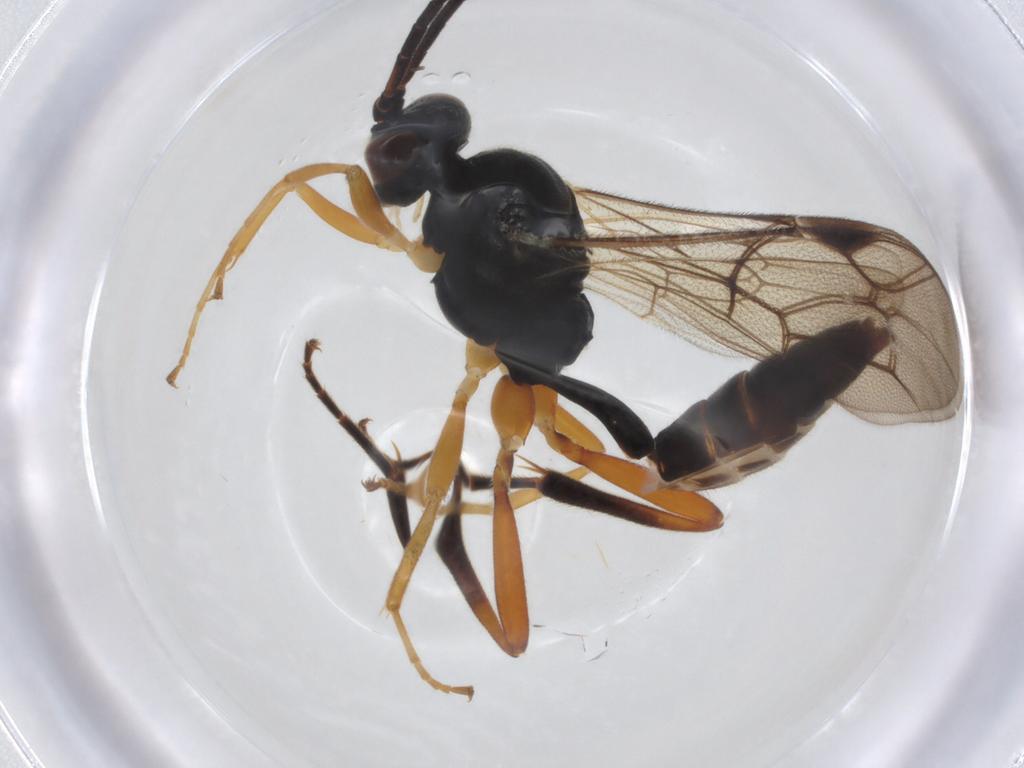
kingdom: Animalia
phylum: Arthropoda
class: Insecta
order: Hymenoptera
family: Ichneumonidae
